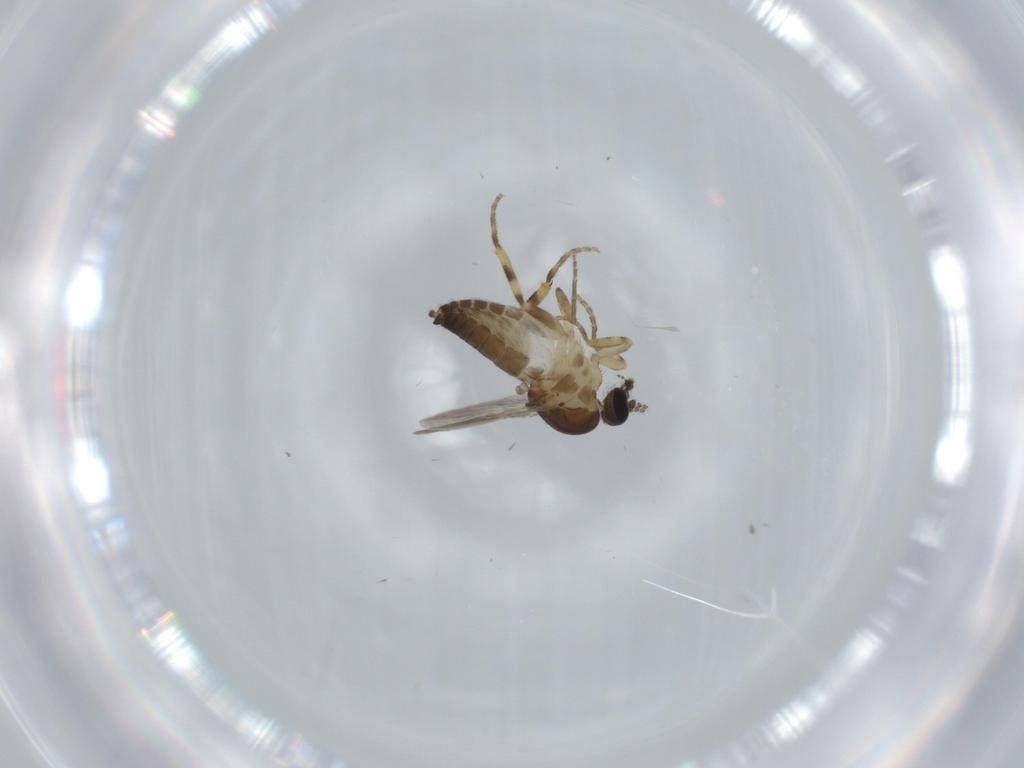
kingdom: Animalia
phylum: Arthropoda
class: Insecta
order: Diptera
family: Ceratopogonidae
